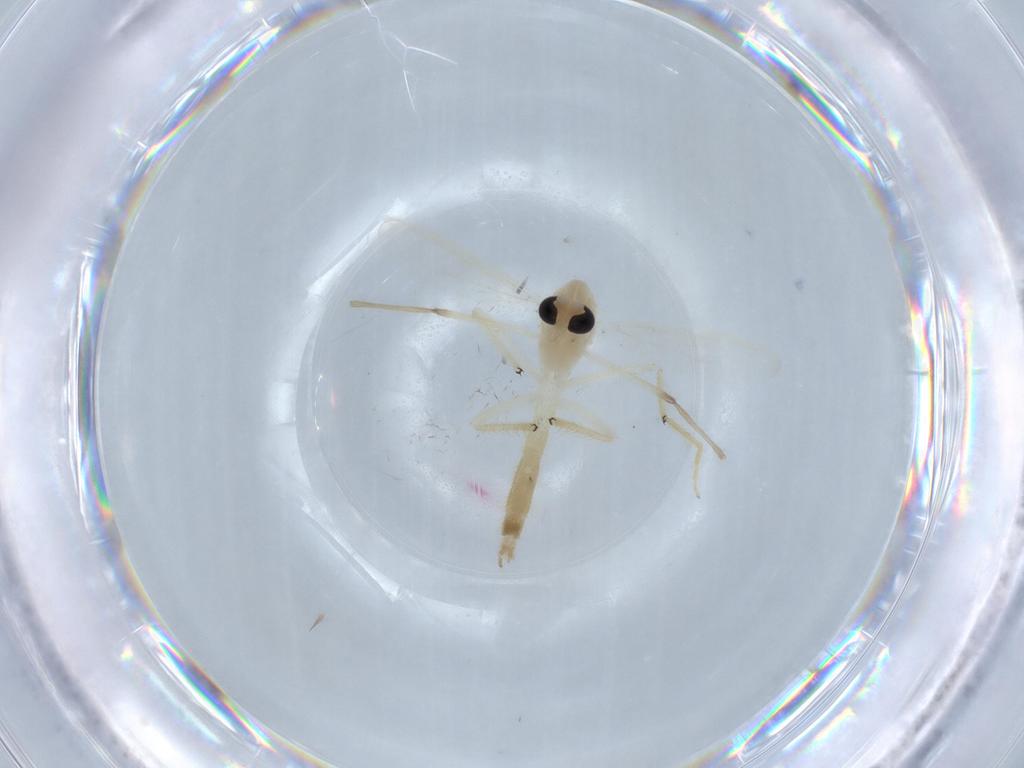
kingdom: Animalia
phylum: Arthropoda
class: Insecta
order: Diptera
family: Chironomidae
